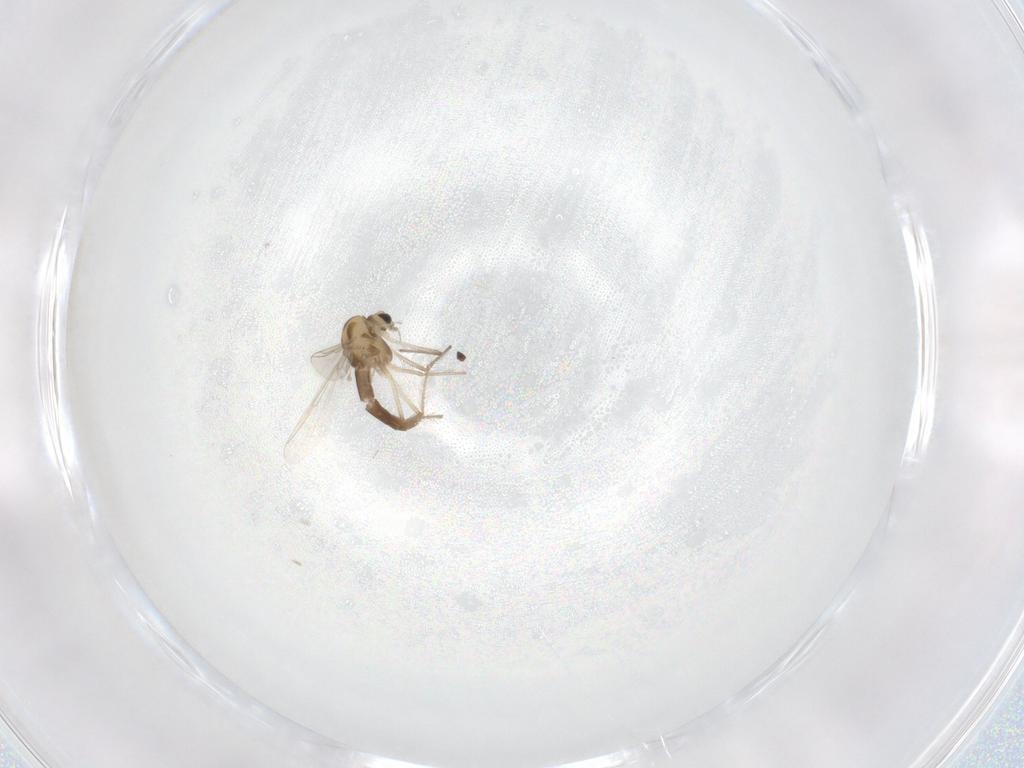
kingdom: Animalia
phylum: Arthropoda
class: Insecta
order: Diptera
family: Chironomidae
